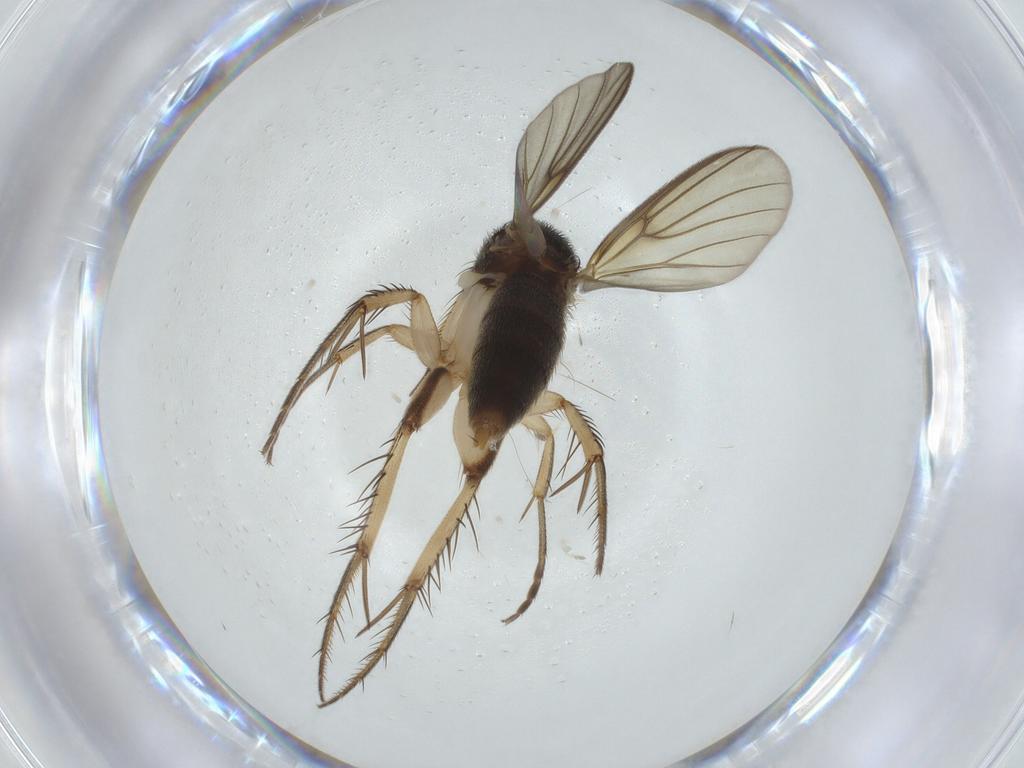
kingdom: Animalia
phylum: Arthropoda
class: Insecta
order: Diptera
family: Mycetophilidae
